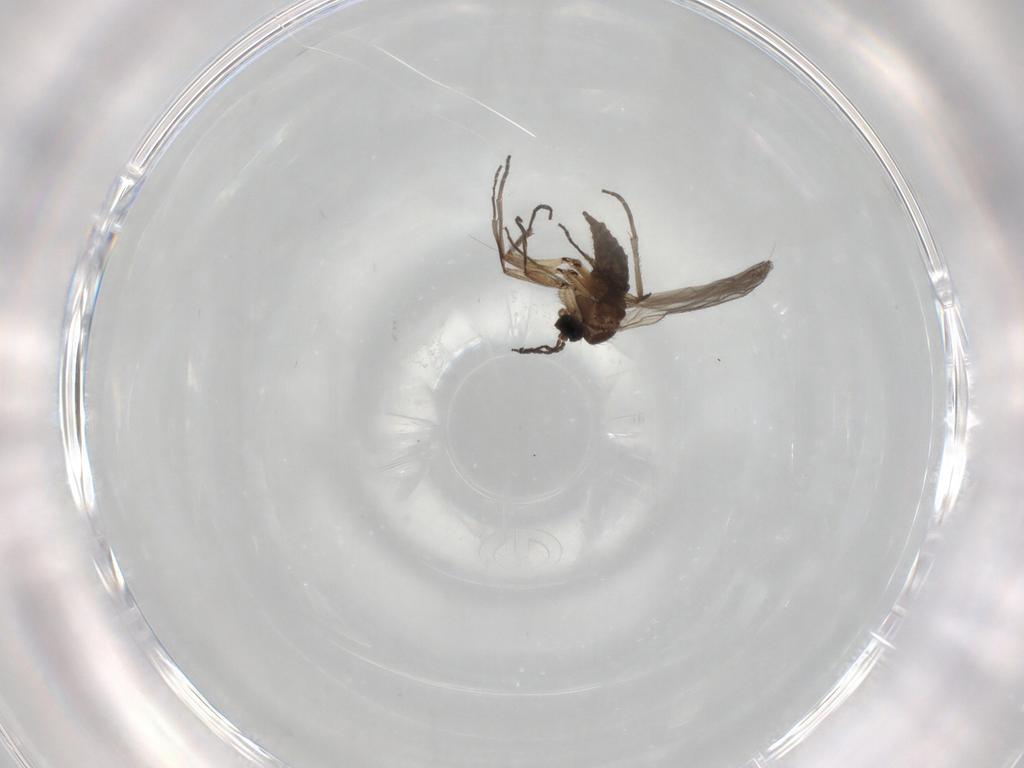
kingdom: Animalia
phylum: Arthropoda
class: Insecta
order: Diptera
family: Sciaridae
